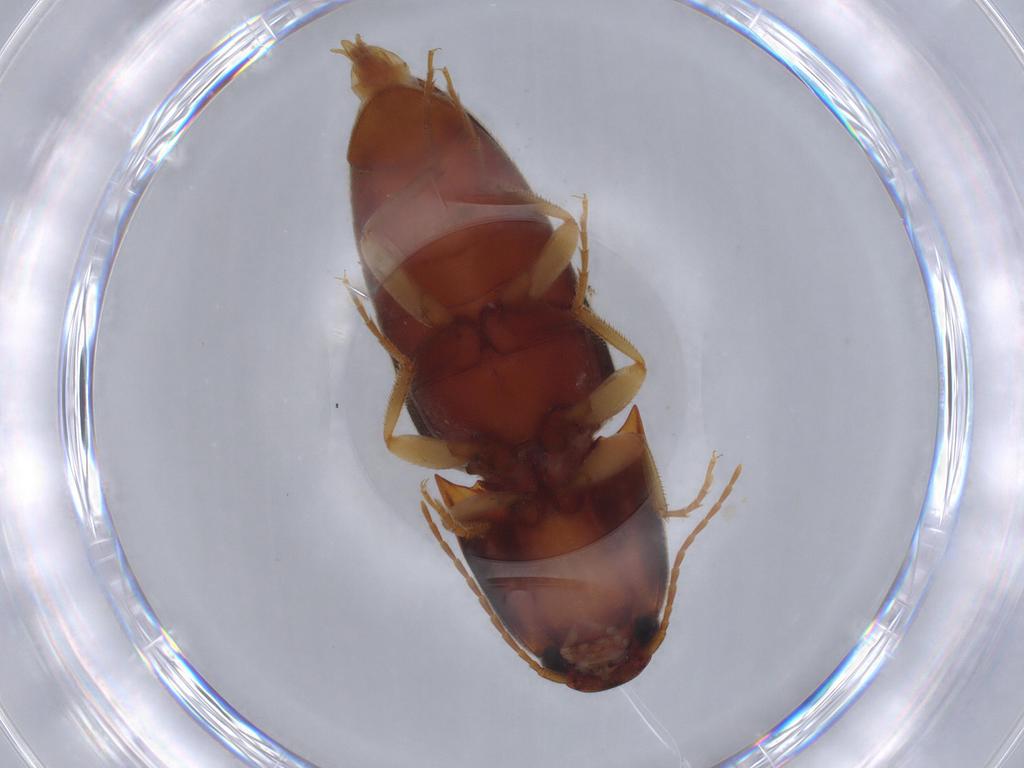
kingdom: Animalia
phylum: Arthropoda
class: Insecta
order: Coleoptera
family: Elateridae
